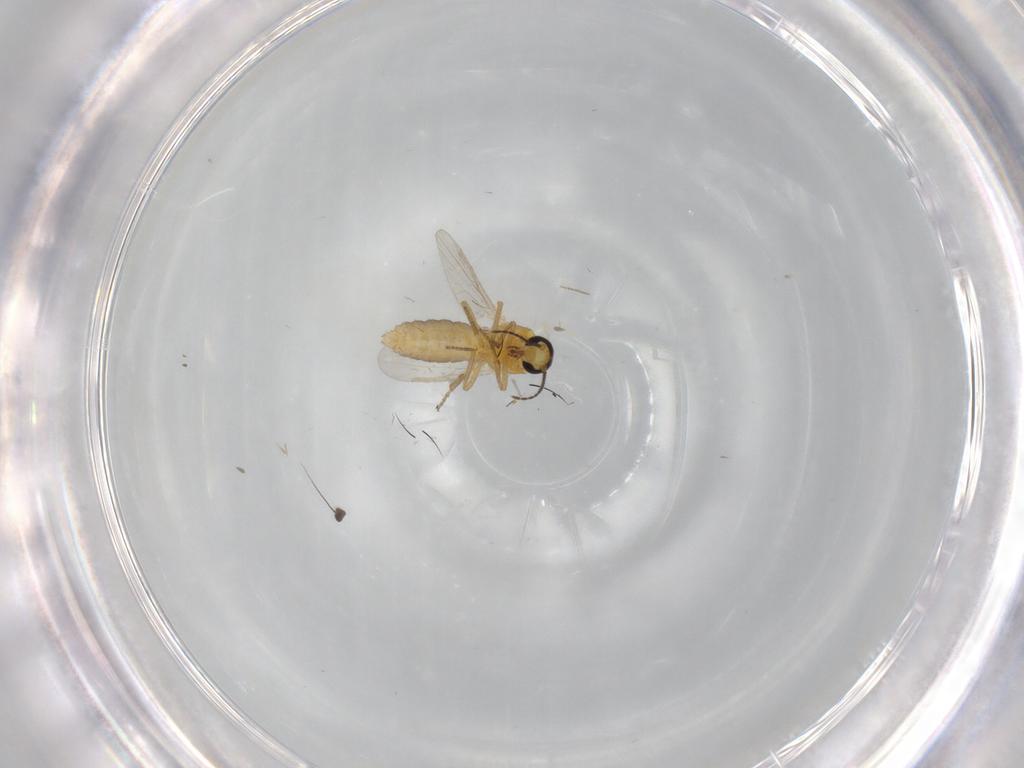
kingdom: Animalia
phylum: Arthropoda
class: Insecta
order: Diptera
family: Ceratopogonidae
